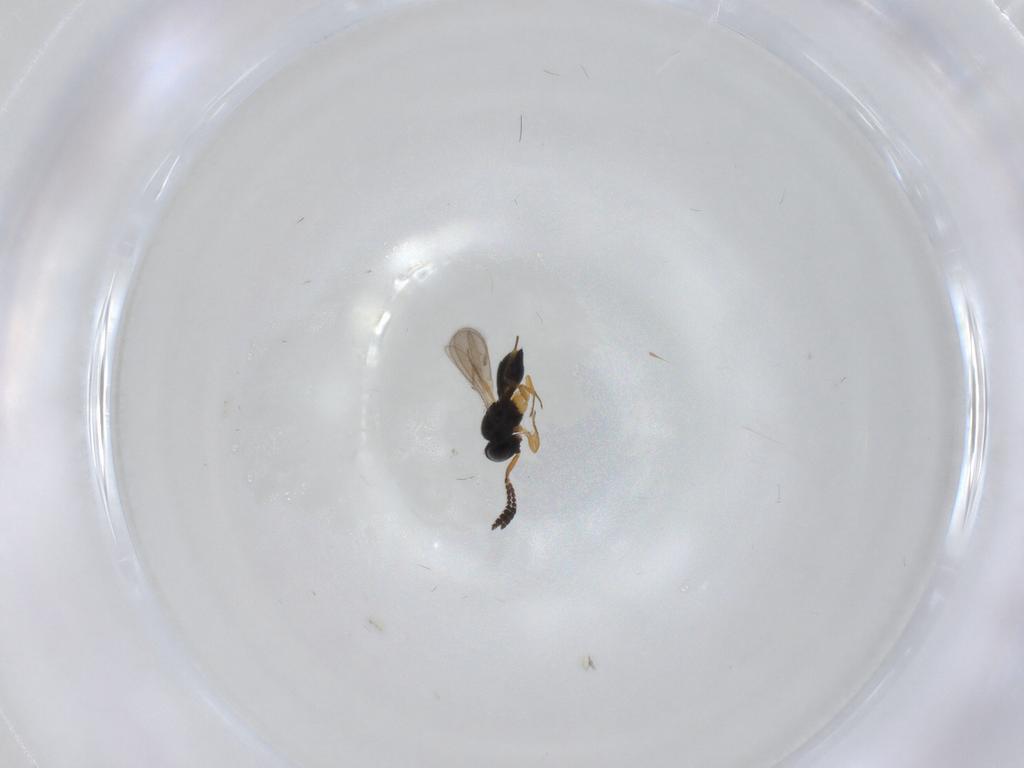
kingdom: Animalia
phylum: Arthropoda
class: Insecta
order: Hymenoptera
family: Scelionidae
